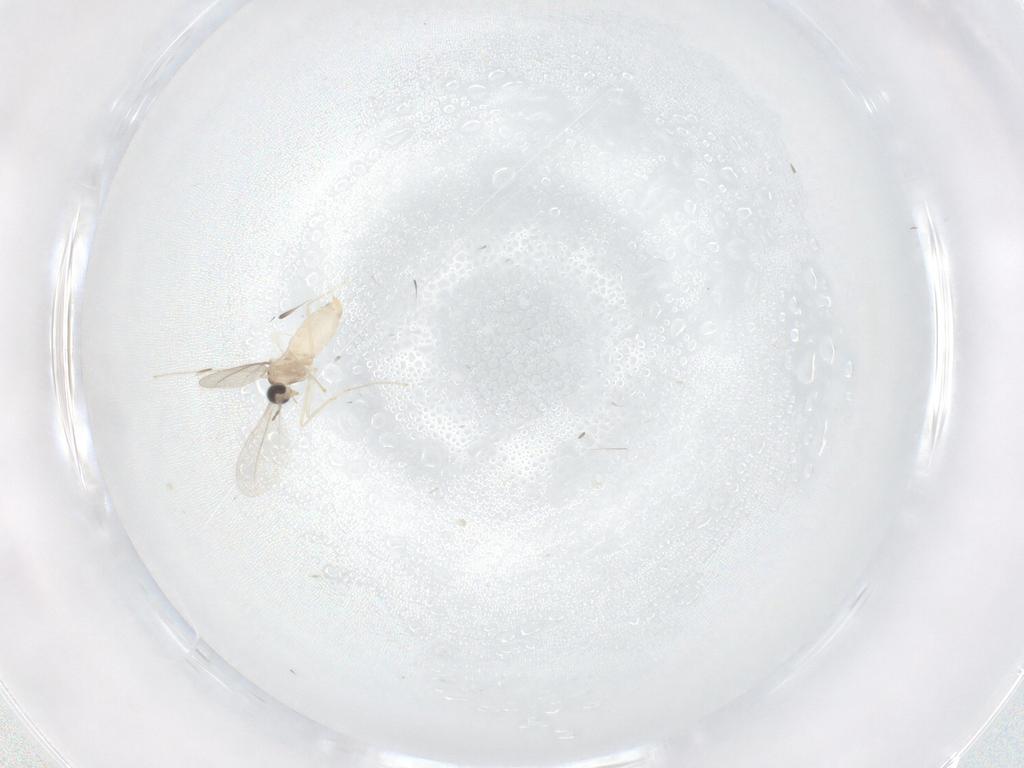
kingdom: Animalia
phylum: Arthropoda
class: Insecta
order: Diptera
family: Cecidomyiidae
